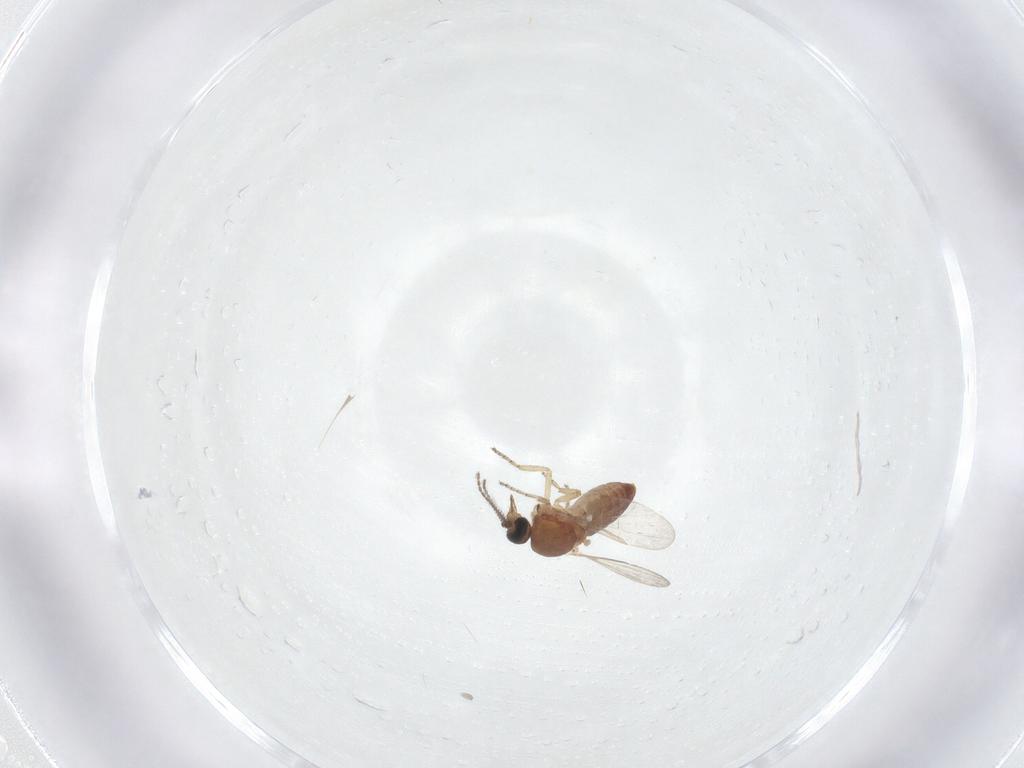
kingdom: Animalia
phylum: Arthropoda
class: Insecta
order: Diptera
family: Ceratopogonidae
